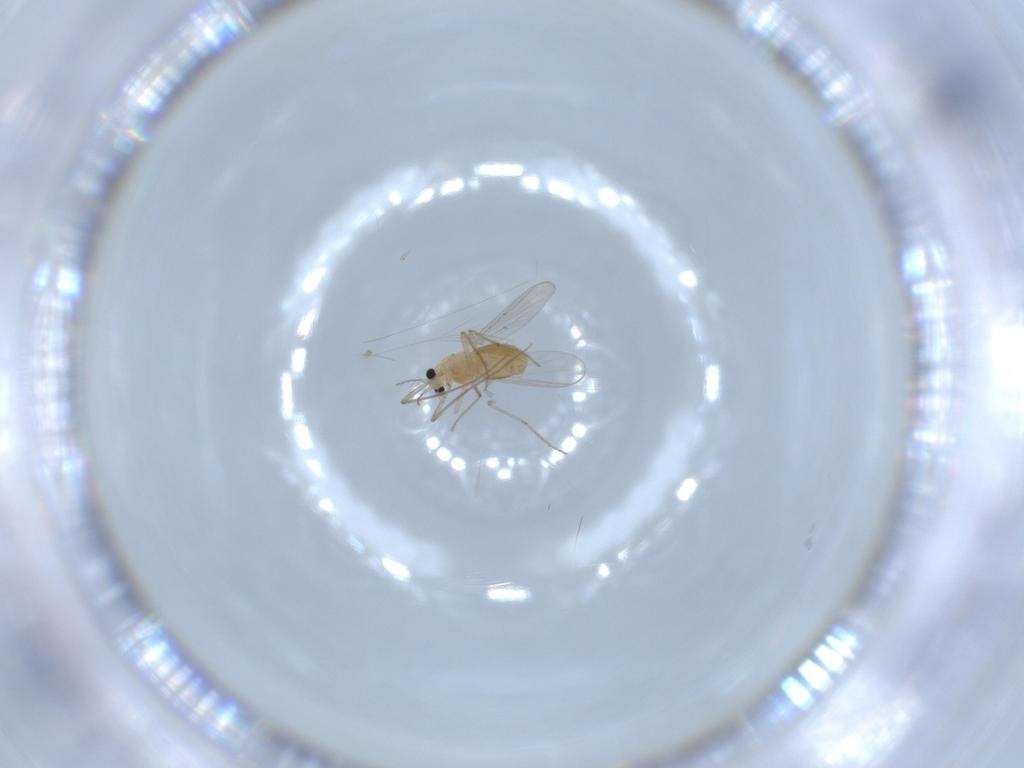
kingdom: Animalia
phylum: Arthropoda
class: Insecta
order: Diptera
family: Chironomidae
